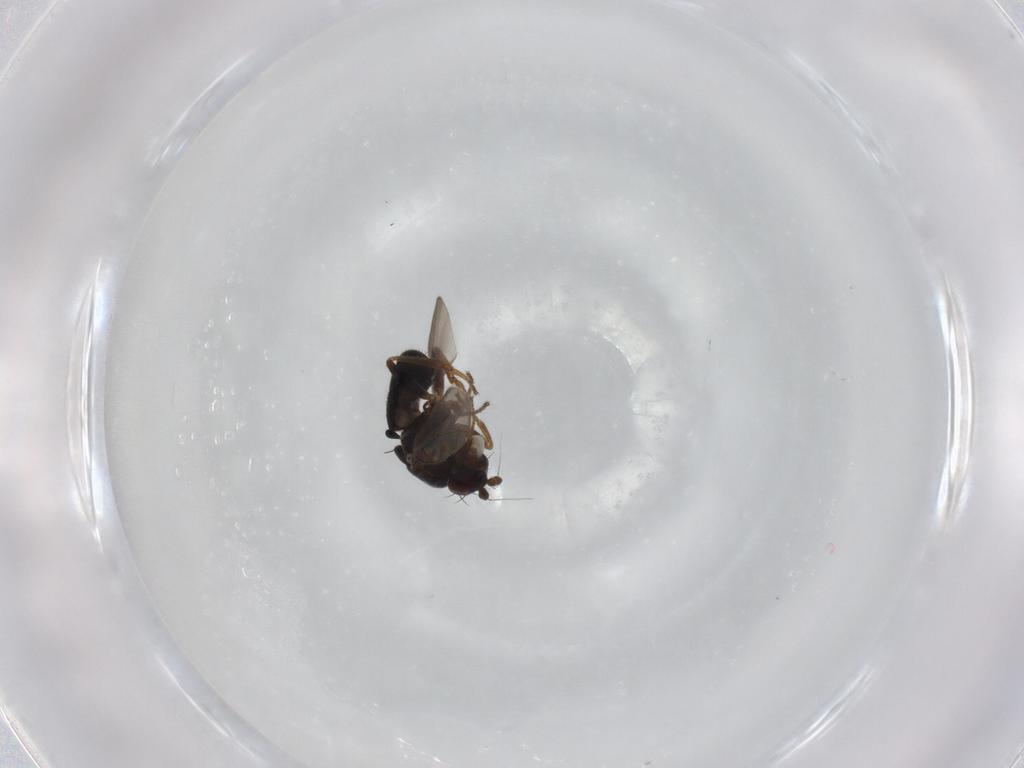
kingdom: Animalia
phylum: Arthropoda
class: Insecta
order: Diptera
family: Sphaeroceridae
